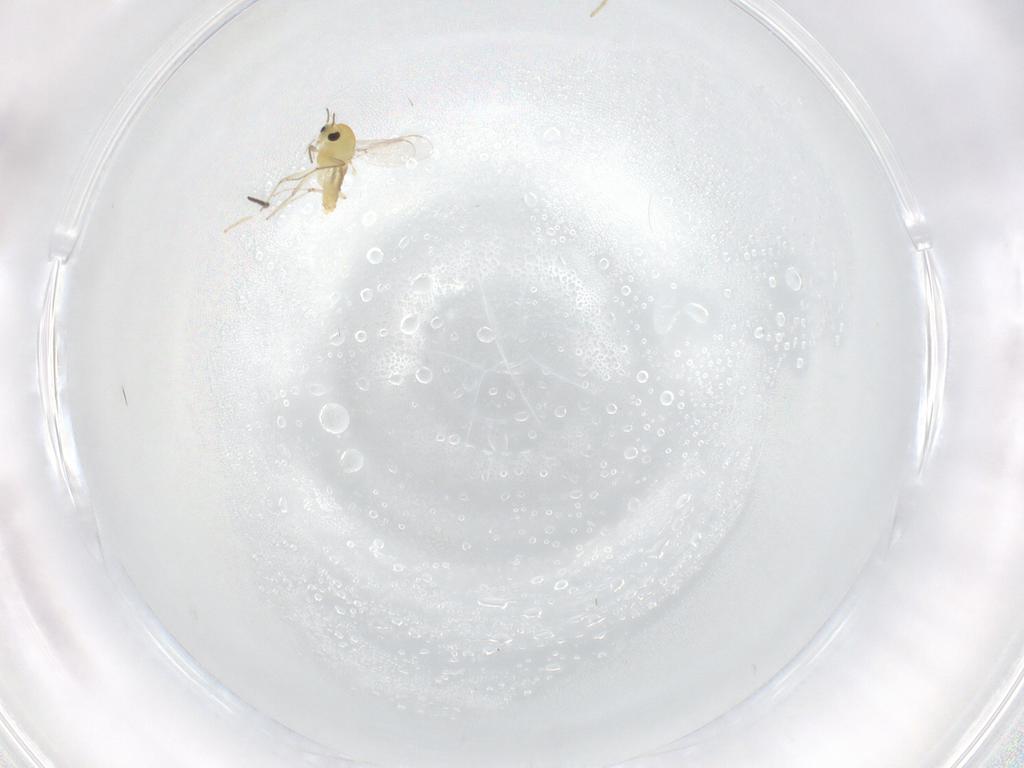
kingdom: Animalia
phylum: Arthropoda
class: Insecta
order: Diptera
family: Chironomidae
